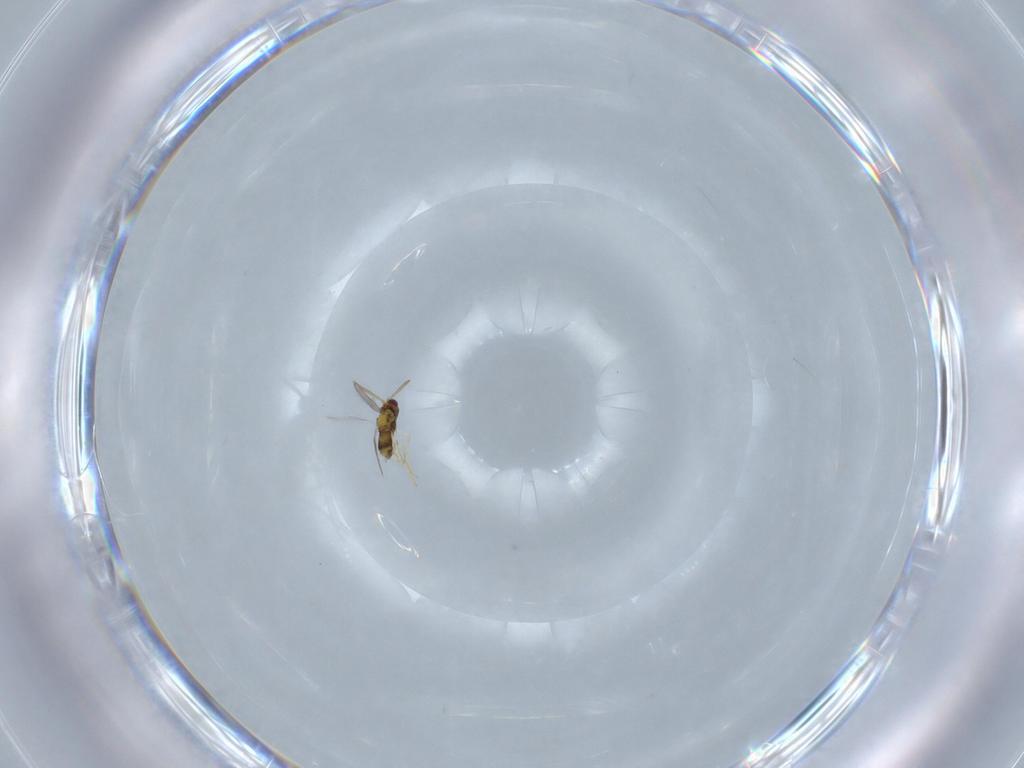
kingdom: Animalia
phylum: Arthropoda
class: Insecta
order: Hymenoptera
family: Aphelinidae
